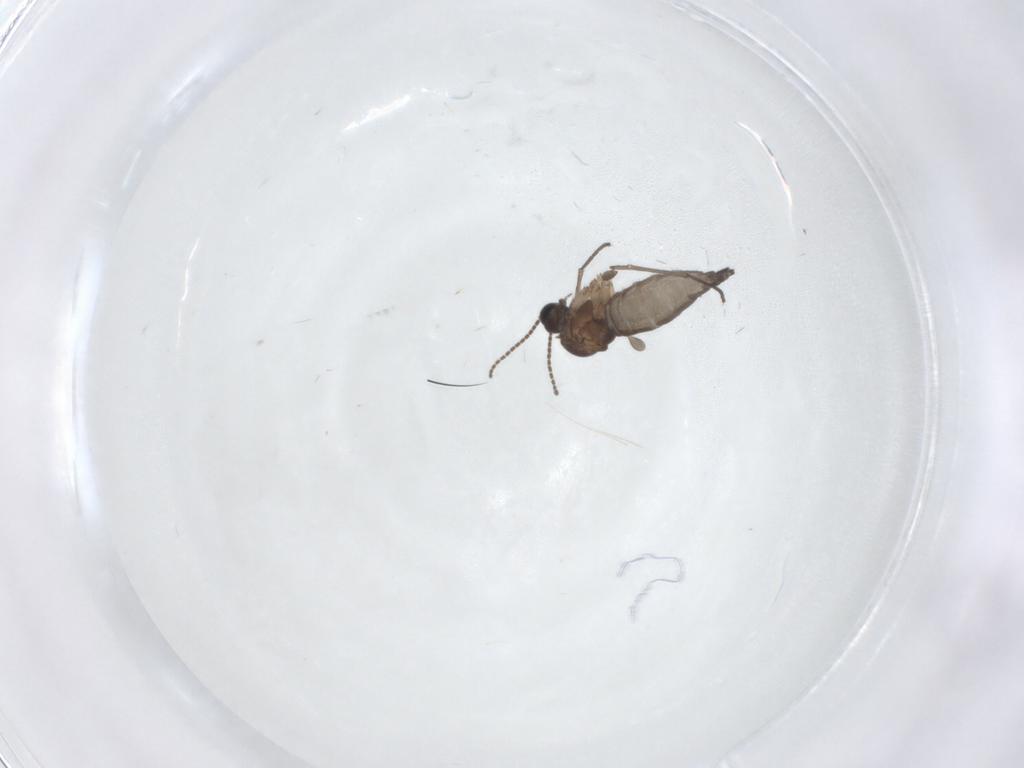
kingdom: Animalia
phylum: Arthropoda
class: Insecta
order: Diptera
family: Sciaridae
